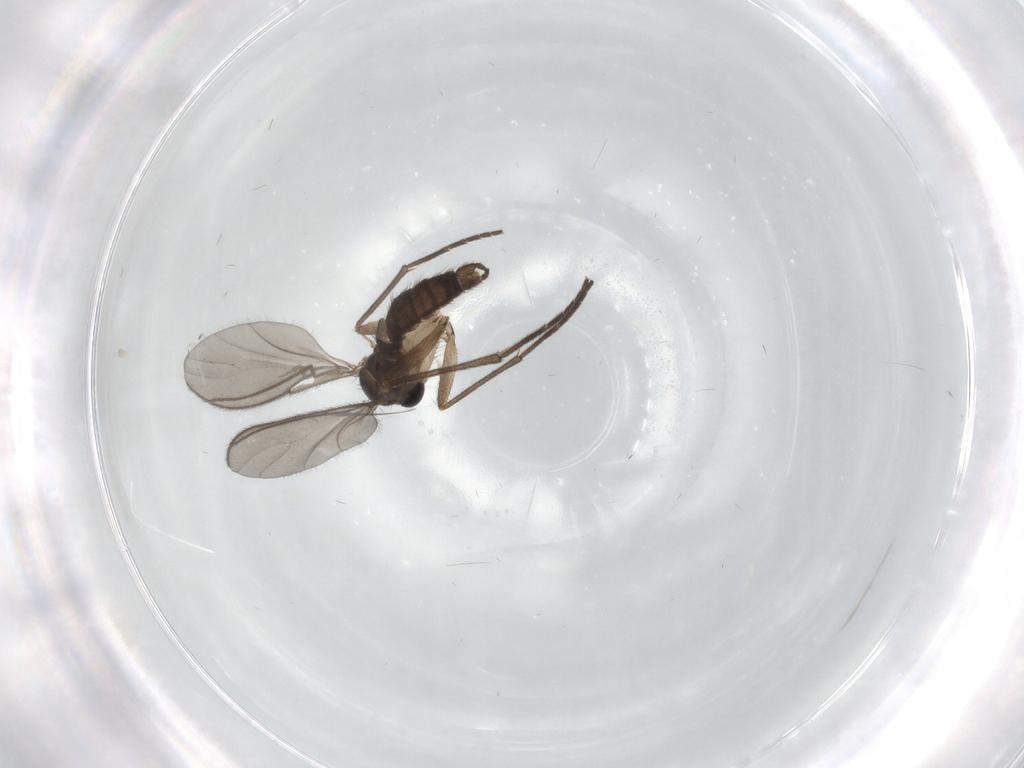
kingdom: Animalia
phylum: Arthropoda
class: Insecta
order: Diptera
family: Sciaridae
